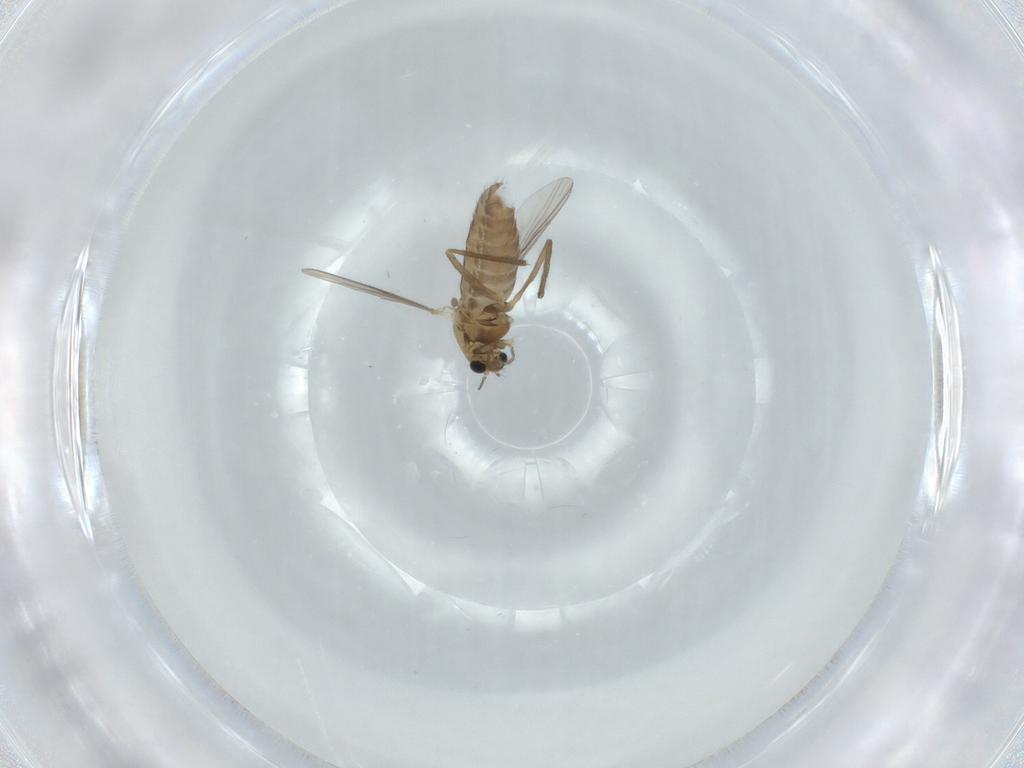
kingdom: Animalia
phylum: Arthropoda
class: Insecta
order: Diptera
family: Chironomidae
